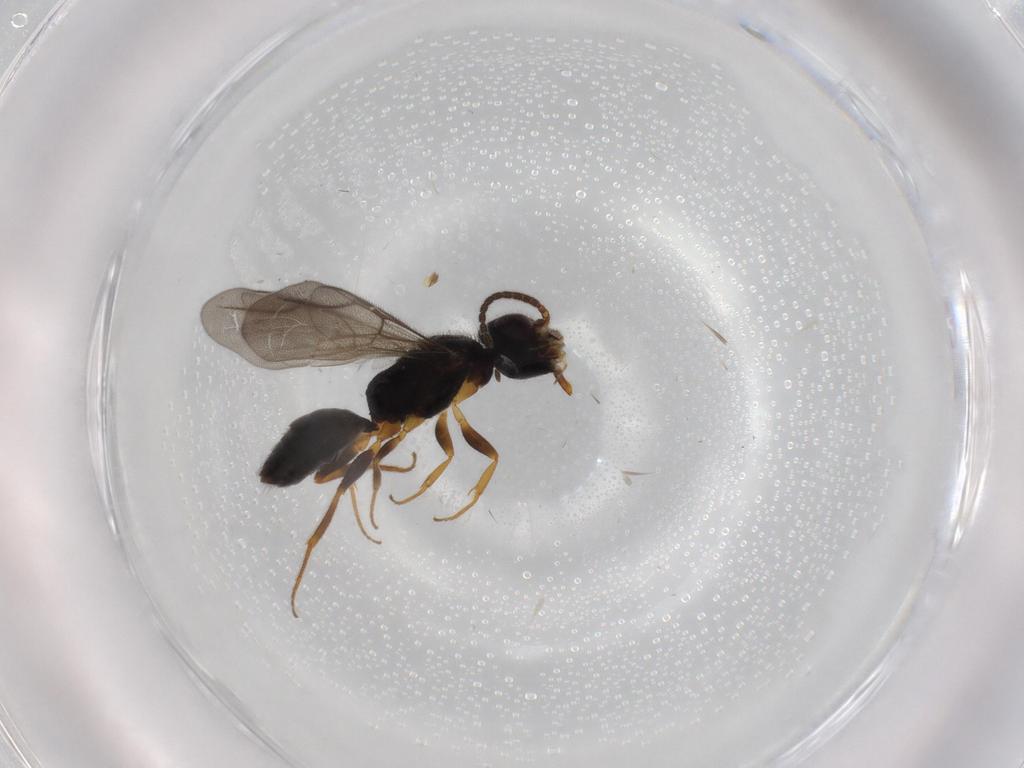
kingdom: Animalia
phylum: Arthropoda
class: Insecta
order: Hymenoptera
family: Bethylidae
